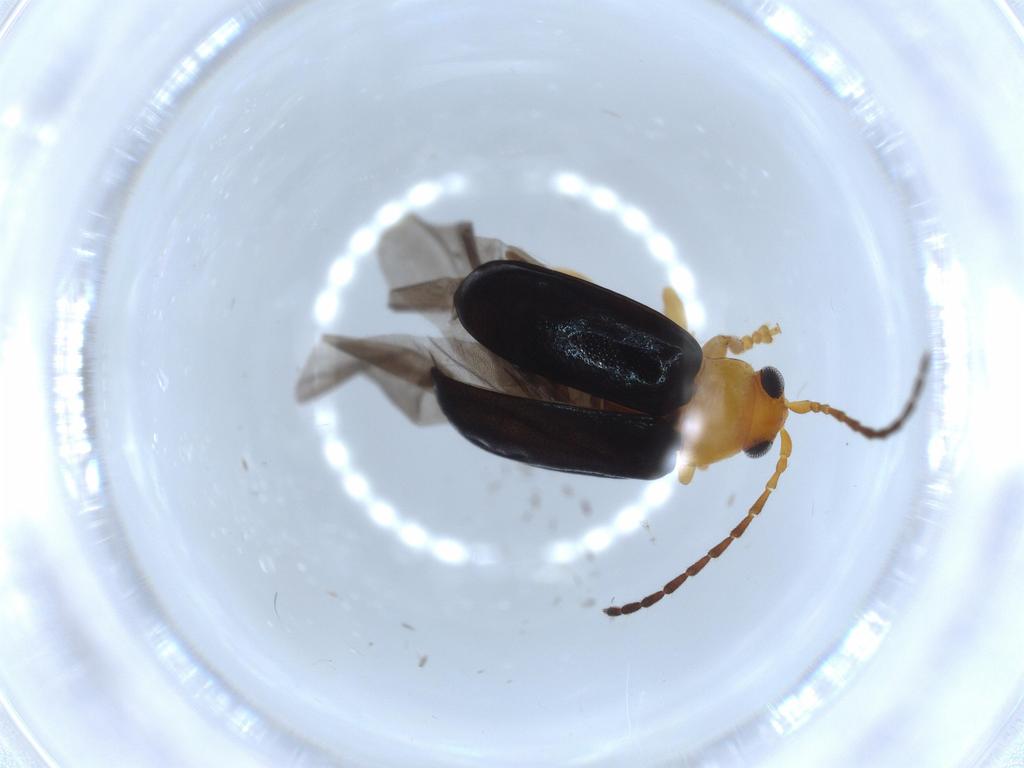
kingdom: Animalia
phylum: Arthropoda
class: Insecta
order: Coleoptera
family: Chrysomelidae
